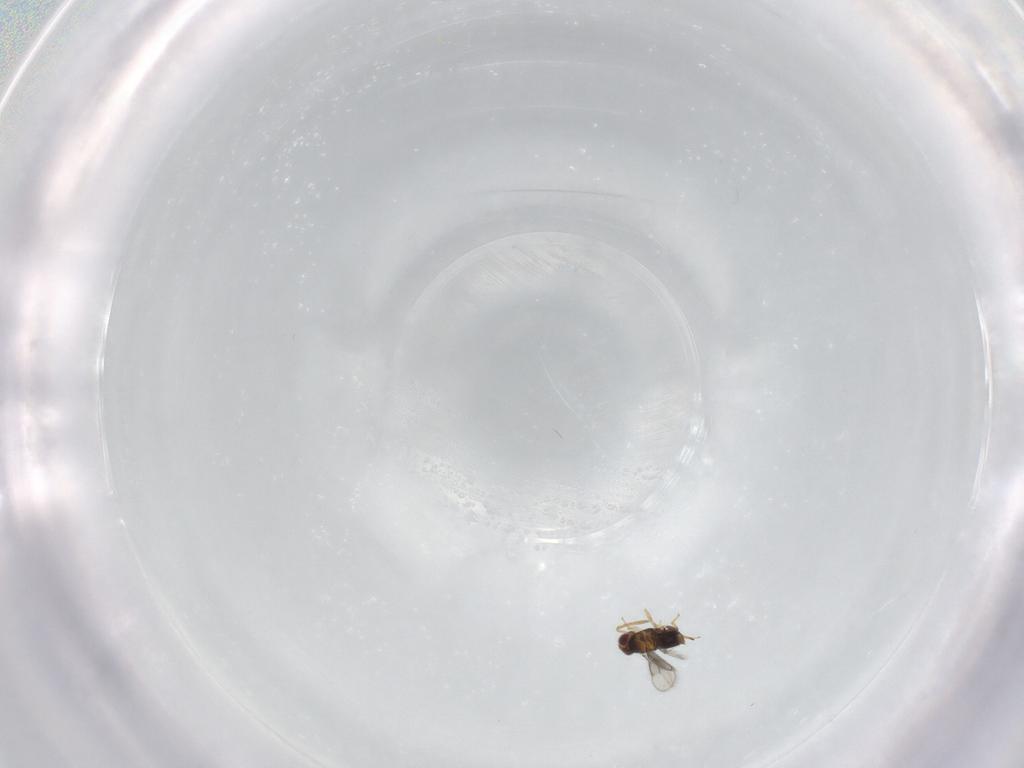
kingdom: Animalia
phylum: Arthropoda
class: Insecta
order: Hymenoptera
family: Aphelinidae
